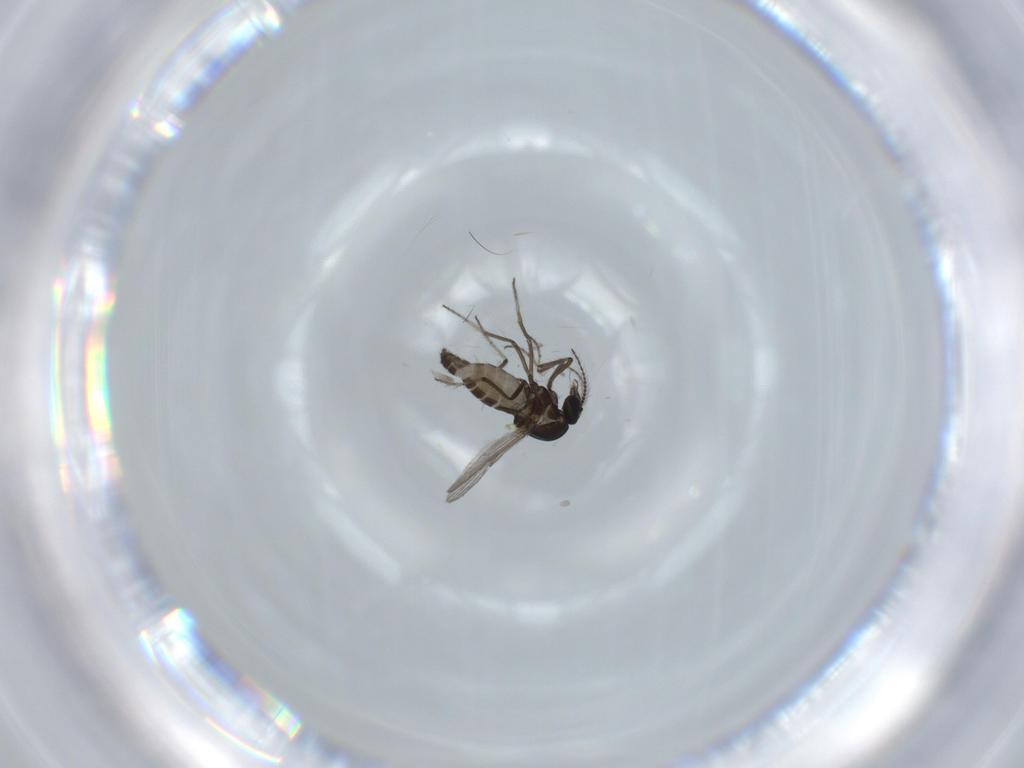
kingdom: Animalia
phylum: Arthropoda
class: Insecta
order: Diptera
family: Ceratopogonidae
